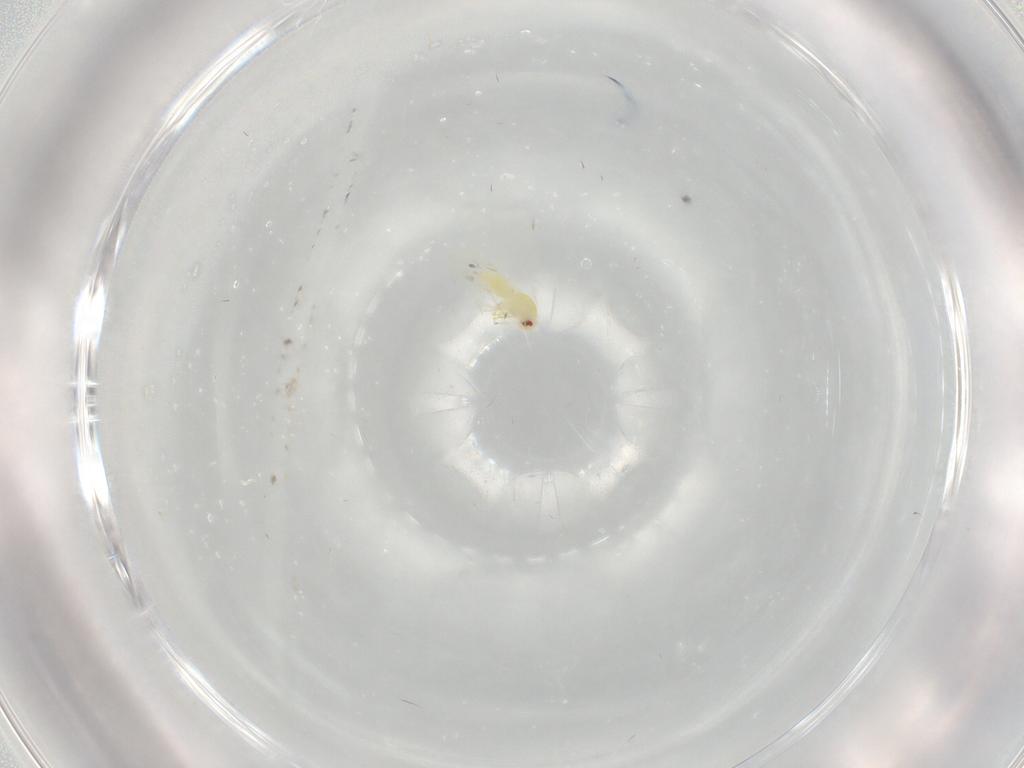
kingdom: Animalia
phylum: Arthropoda
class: Insecta
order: Hemiptera
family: Aleyrodidae
